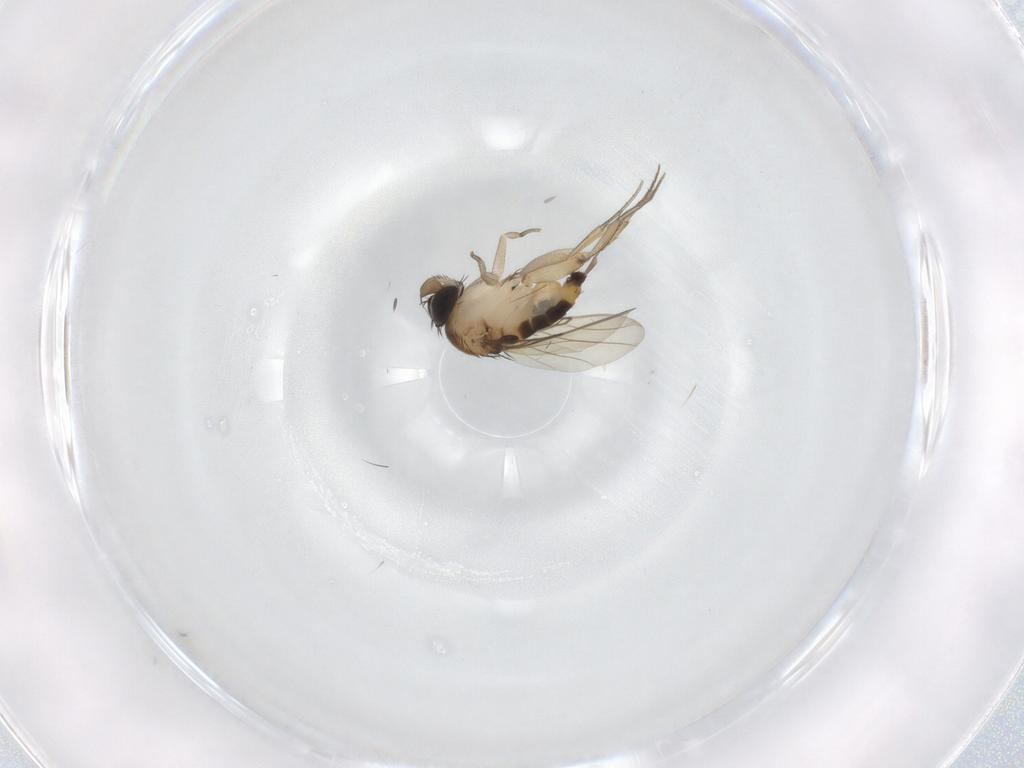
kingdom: Animalia
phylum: Arthropoda
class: Insecta
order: Diptera
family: Phoridae
